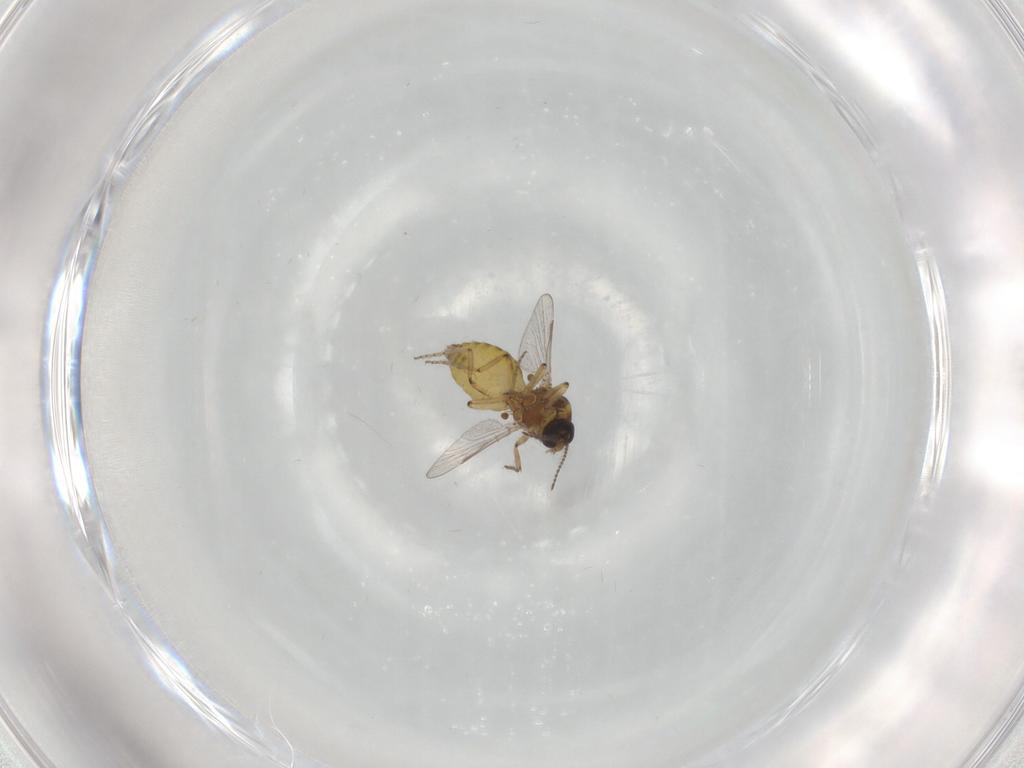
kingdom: Animalia
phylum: Arthropoda
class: Insecta
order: Diptera
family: Ceratopogonidae
